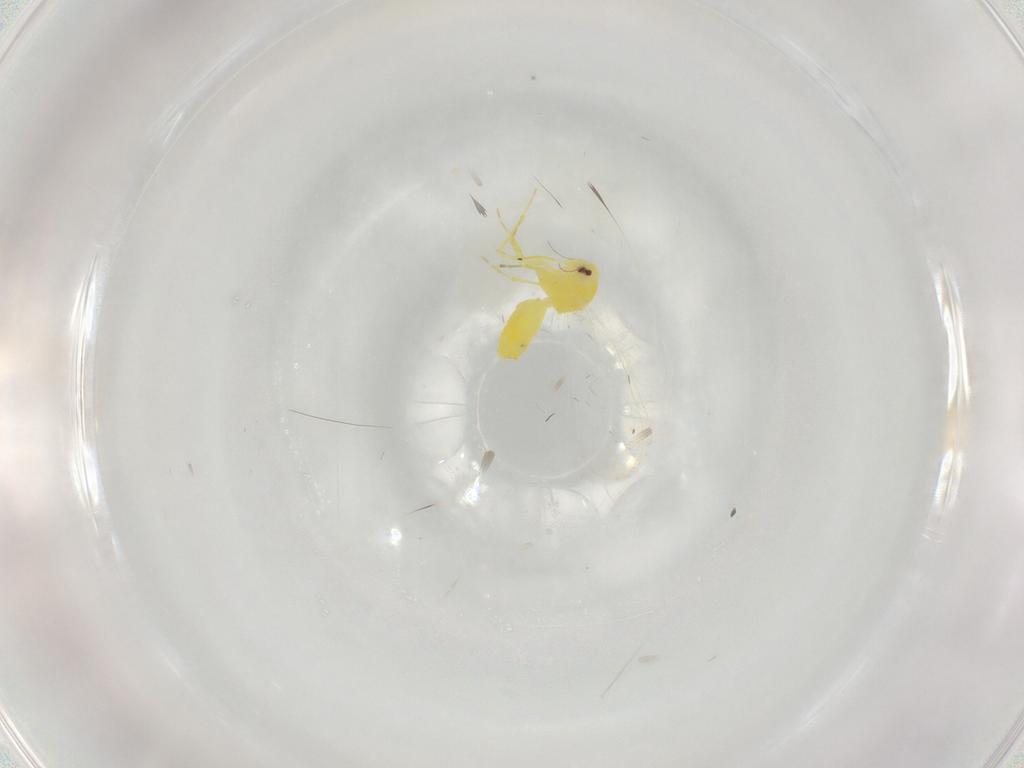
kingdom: Animalia
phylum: Arthropoda
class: Insecta
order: Hemiptera
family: Aleyrodidae
